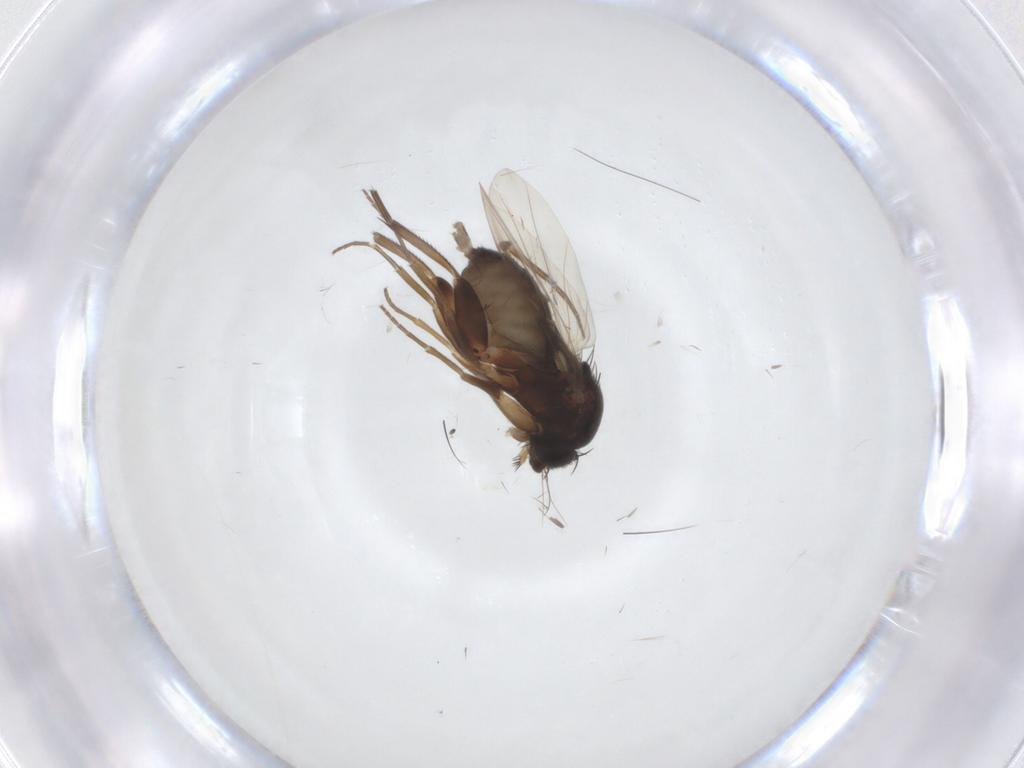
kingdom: Animalia
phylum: Arthropoda
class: Insecta
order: Diptera
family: Phoridae
